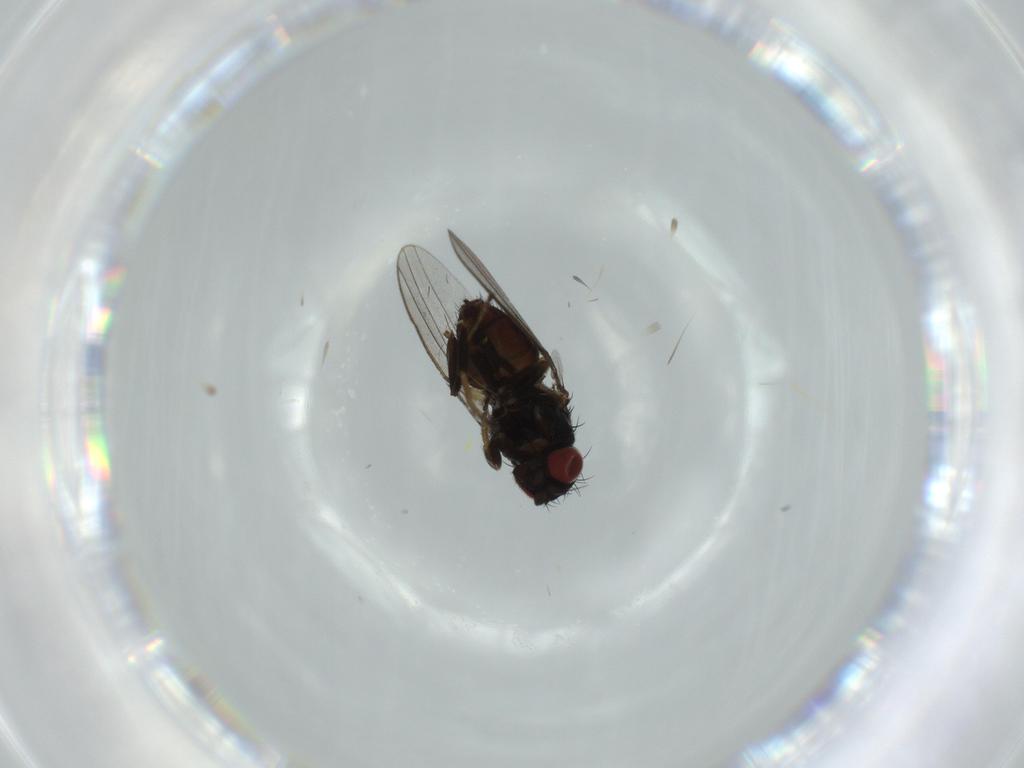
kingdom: Animalia
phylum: Arthropoda
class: Insecta
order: Diptera
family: Milichiidae
